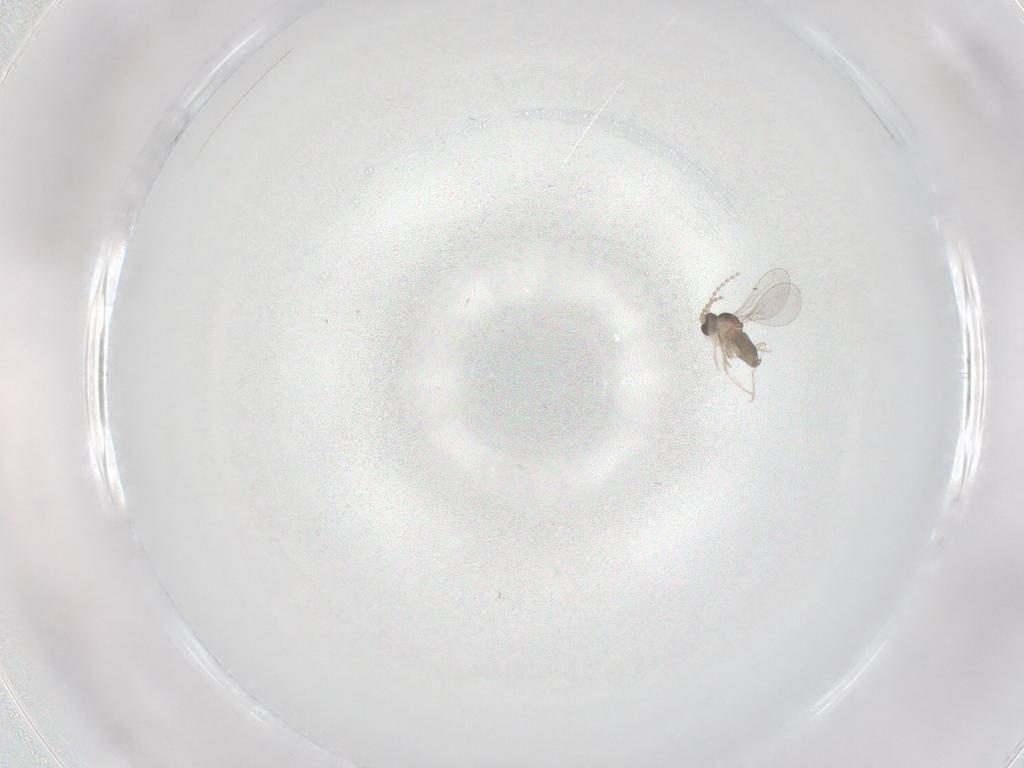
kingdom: Animalia
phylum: Arthropoda
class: Insecta
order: Diptera
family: Cecidomyiidae
